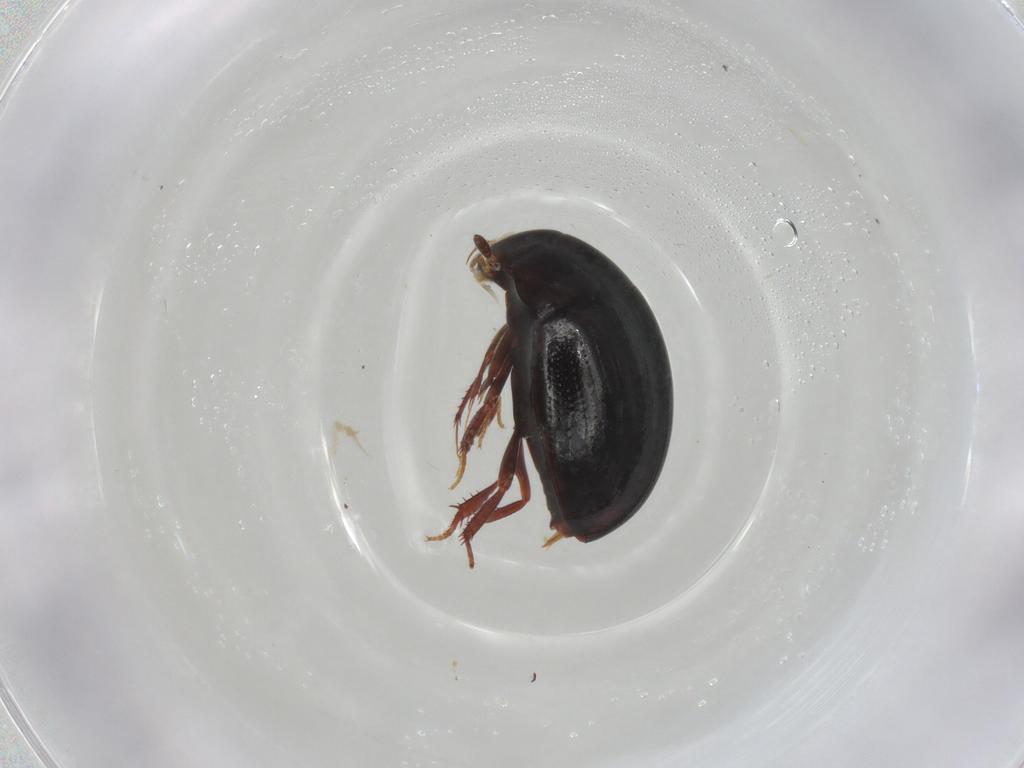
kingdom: Animalia
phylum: Arthropoda
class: Insecta
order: Coleoptera
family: Hydrophilidae
